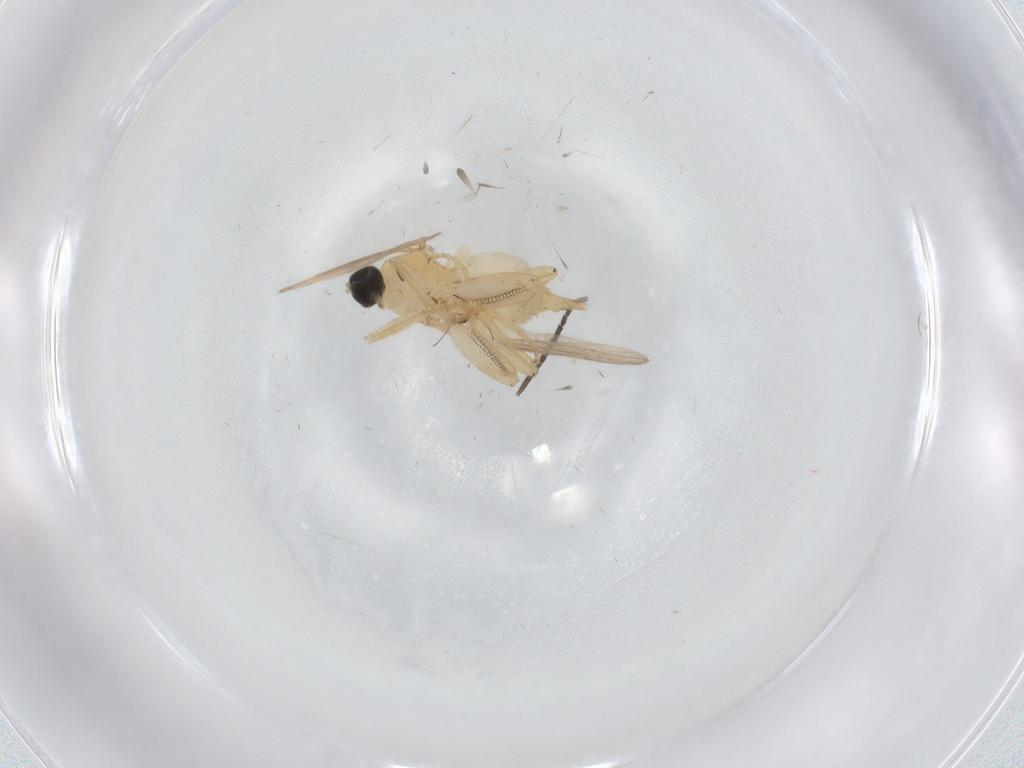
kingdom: Animalia
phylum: Arthropoda
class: Insecta
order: Diptera
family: Hybotidae
